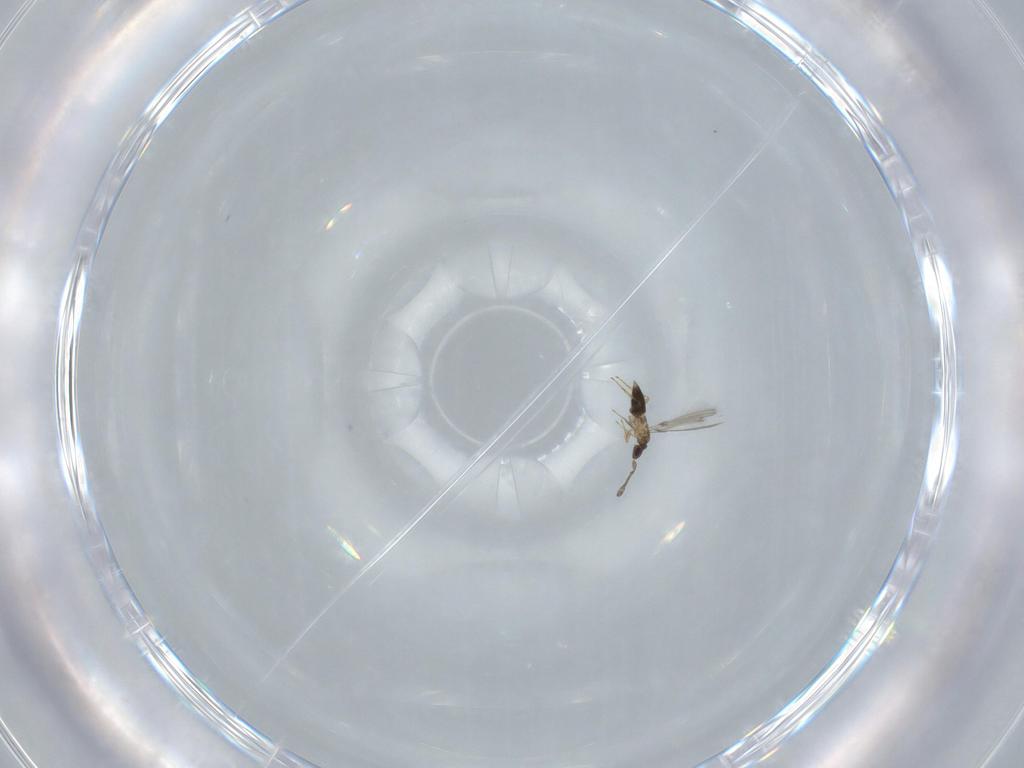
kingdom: Animalia
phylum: Arthropoda
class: Insecta
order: Hymenoptera
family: Mymaridae
